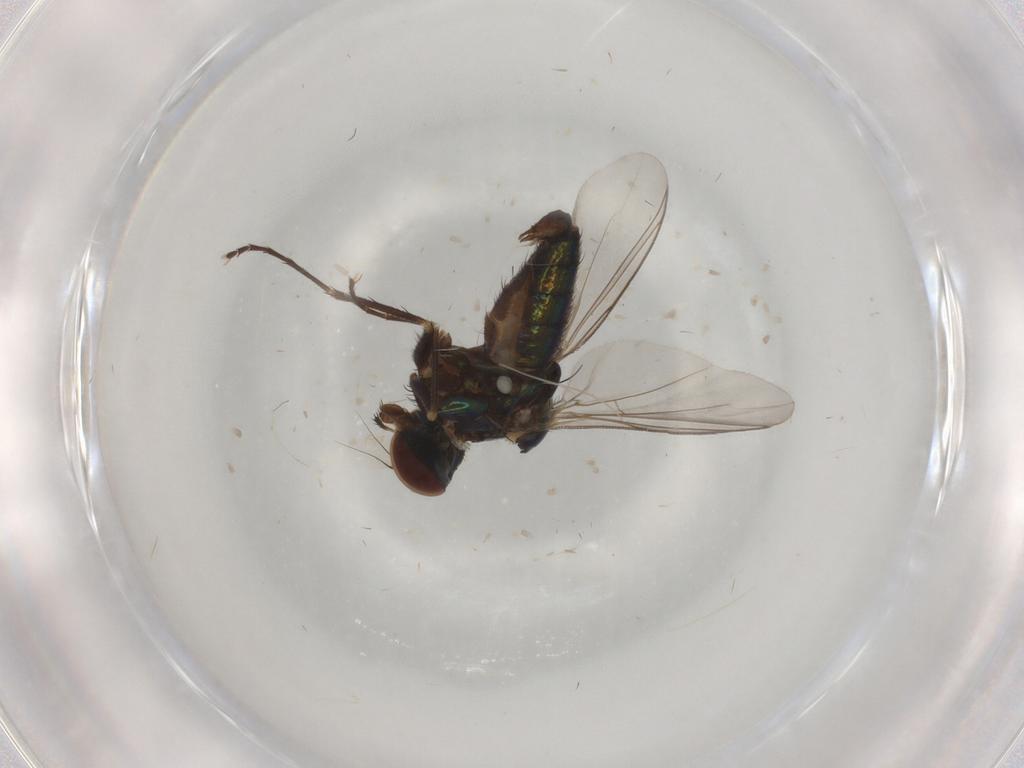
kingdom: Animalia
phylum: Arthropoda
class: Insecta
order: Diptera
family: Dolichopodidae
